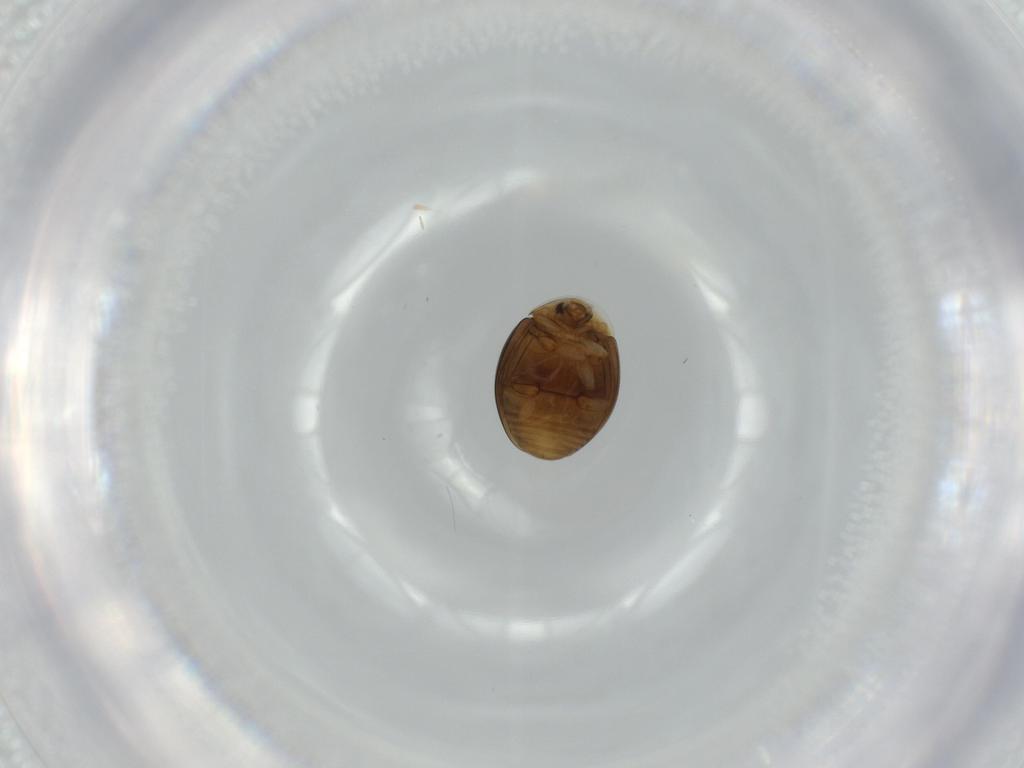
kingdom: Animalia
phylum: Arthropoda
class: Insecta
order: Coleoptera
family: Corylophidae
